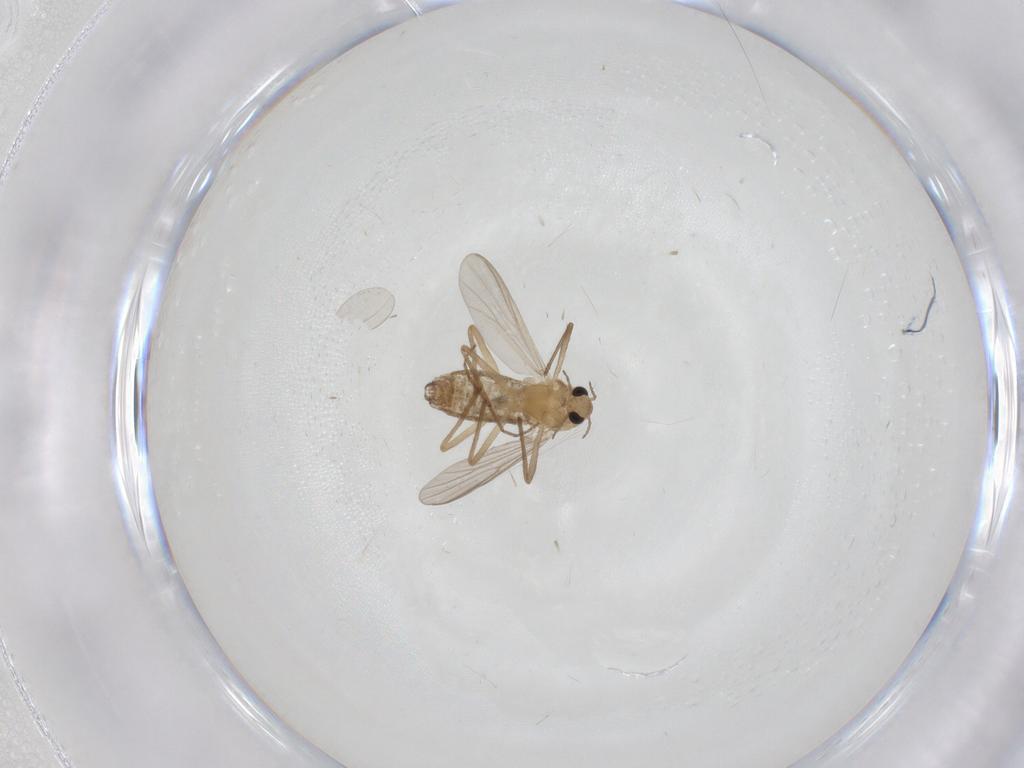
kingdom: Animalia
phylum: Arthropoda
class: Insecta
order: Diptera
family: Chironomidae
